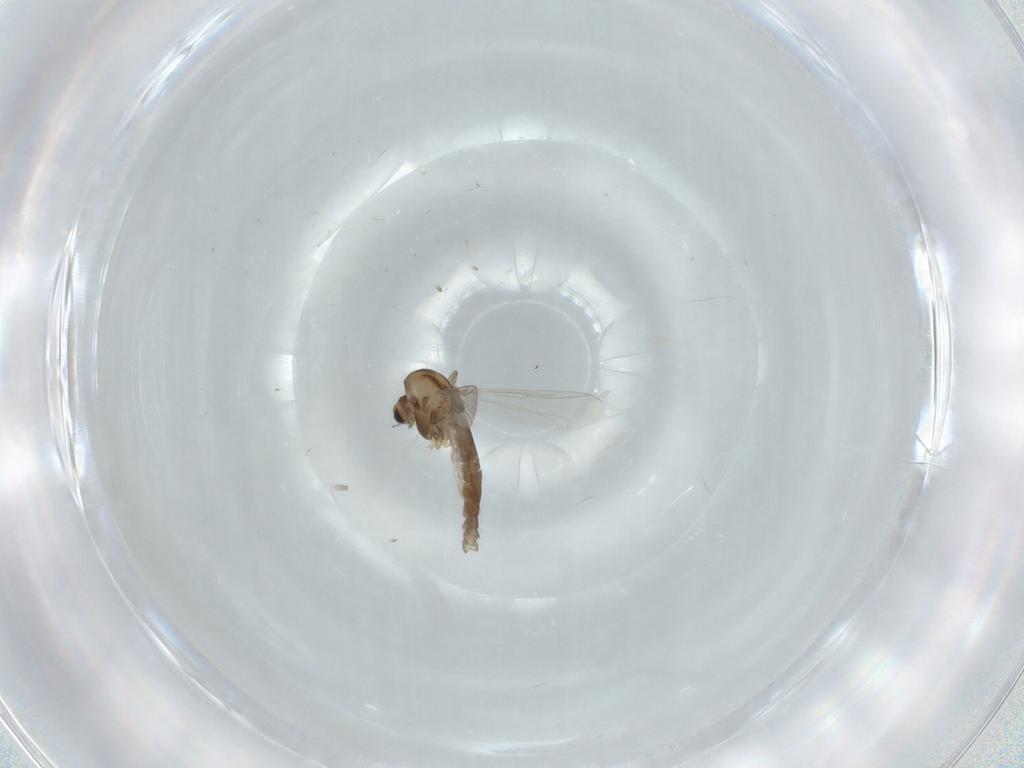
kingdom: Animalia
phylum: Arthropoda
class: Insecta
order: Diptera
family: Chironomidae
